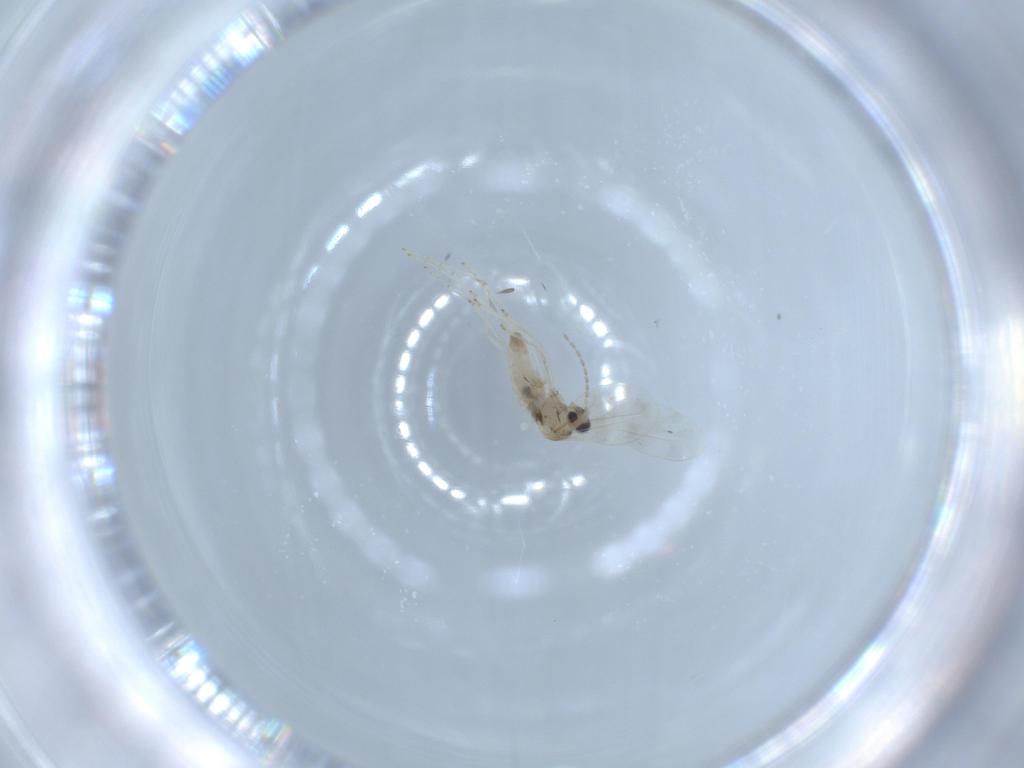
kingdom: Animalia
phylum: Arthropoda
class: Insecta
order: Diptera
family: Cecidomyiidae
